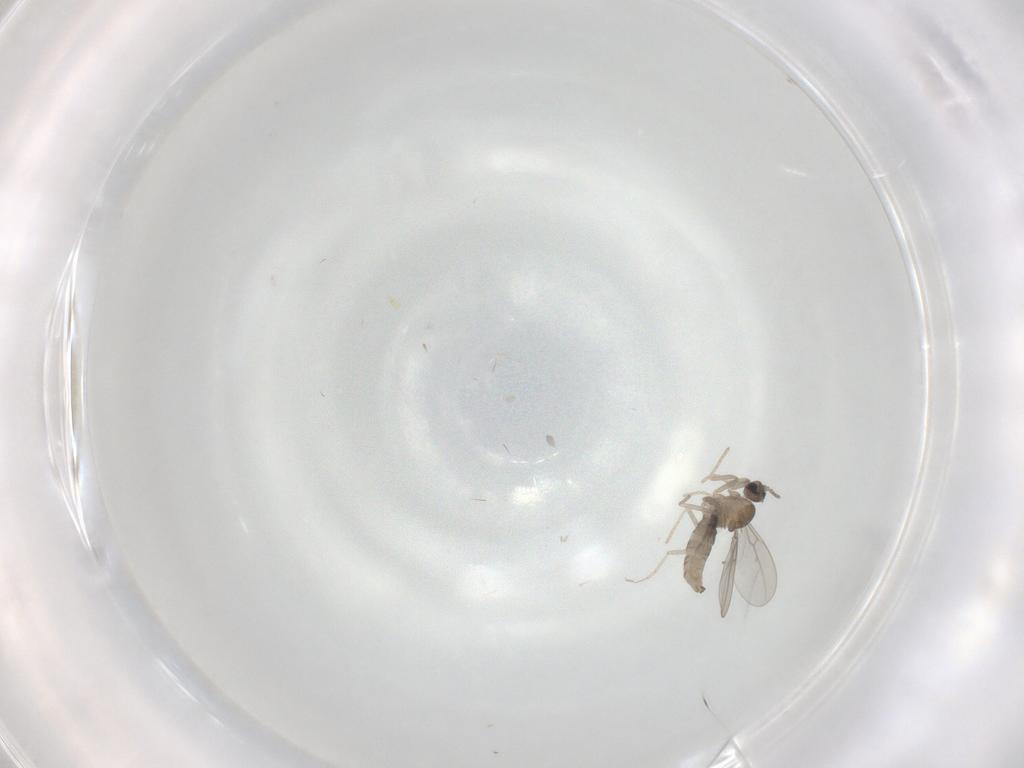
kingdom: Animalia
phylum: Arthropoda
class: Insecta
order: Diptera
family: Cecidomyiidae
